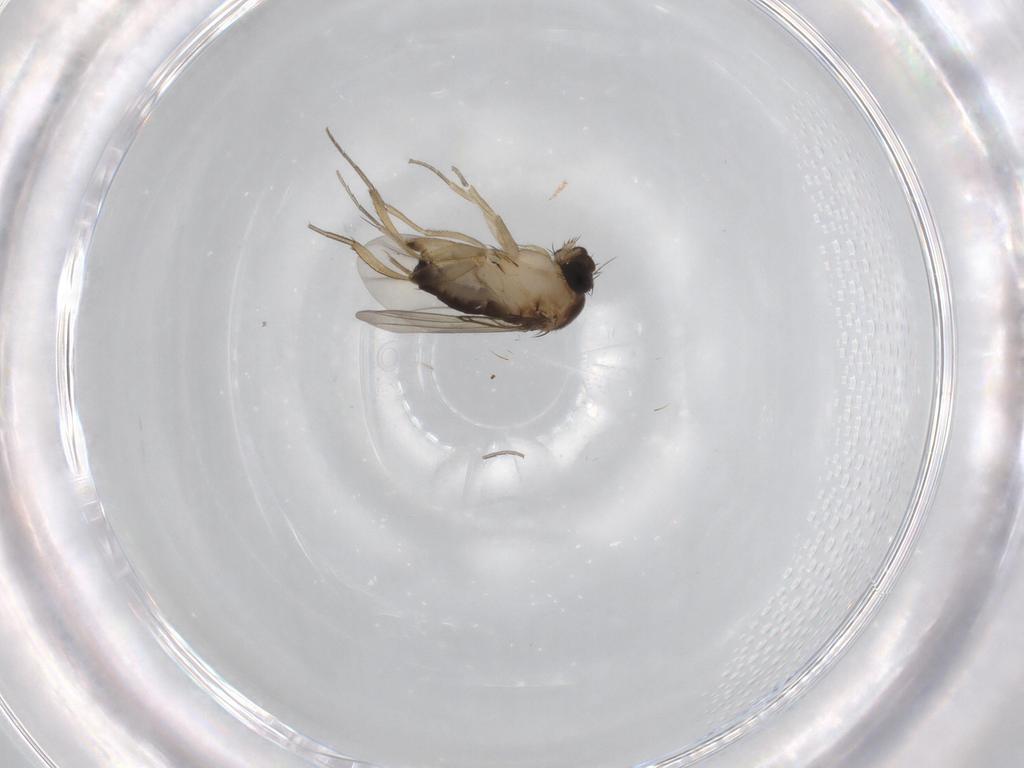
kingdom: Animalia
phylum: Arthropoda
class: Insecta
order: Diptera
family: Phoridae
